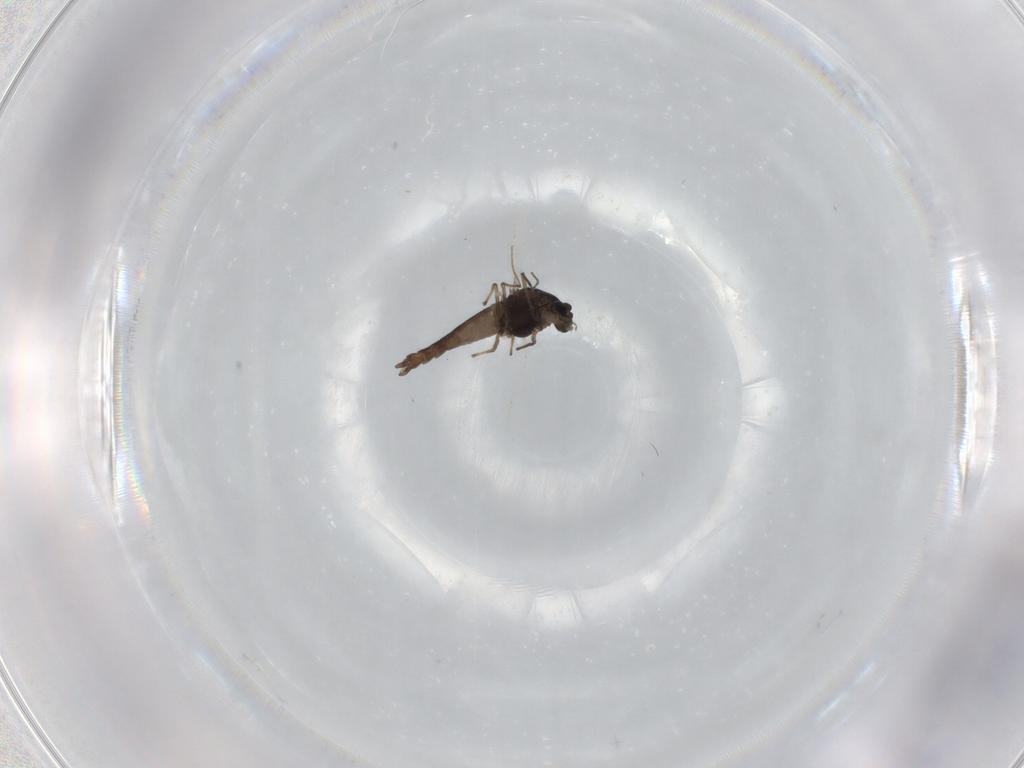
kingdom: Animalia
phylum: Arthropoda
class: Insecta
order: Diptera
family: Chironomidae
